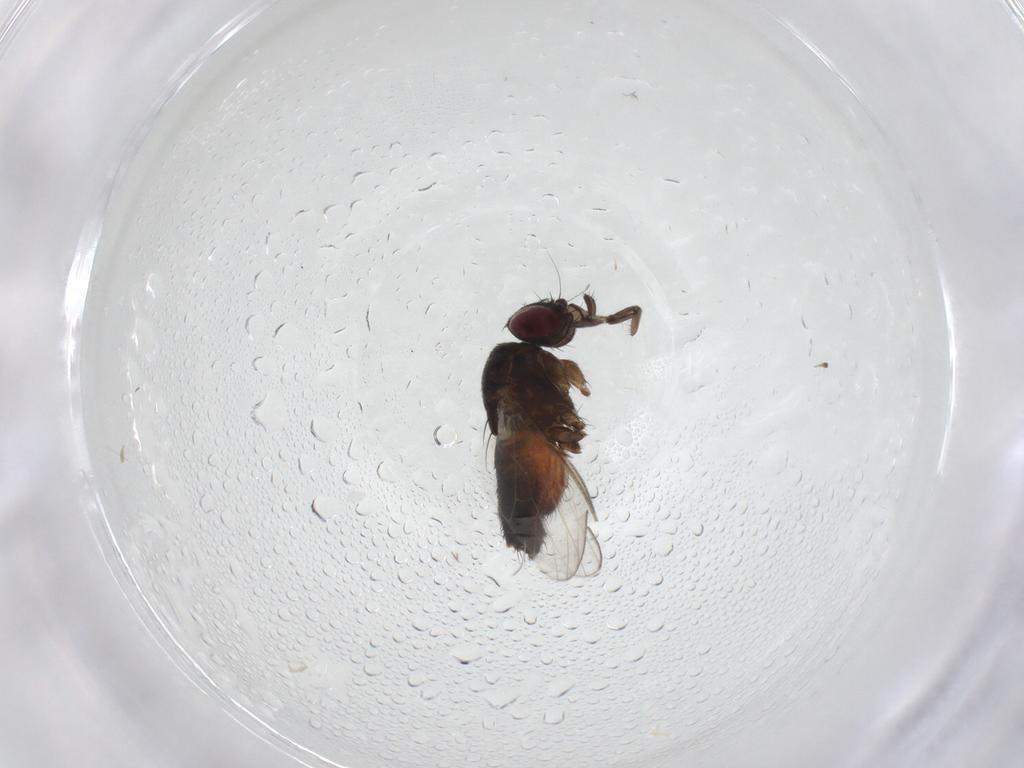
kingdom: Animalia
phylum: Arthropoda
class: Insecta
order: Diptera
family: Milichiidae
